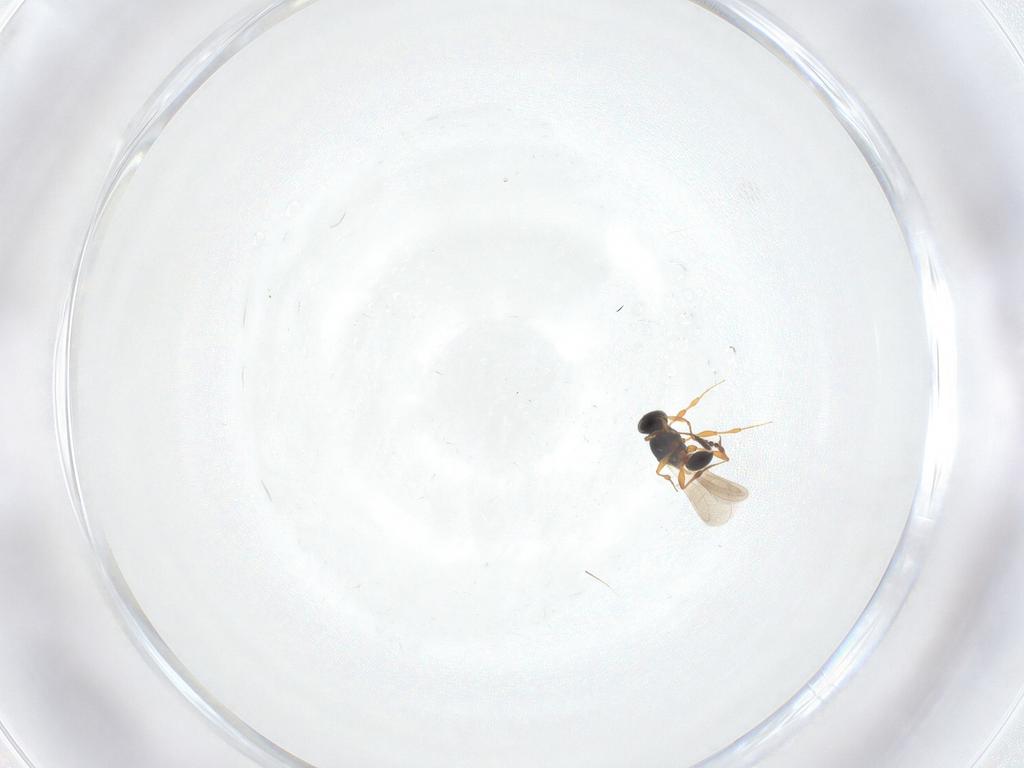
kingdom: Animalia
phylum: Arthropoda
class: Insecta
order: Hymenoptera
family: Platygastridae
